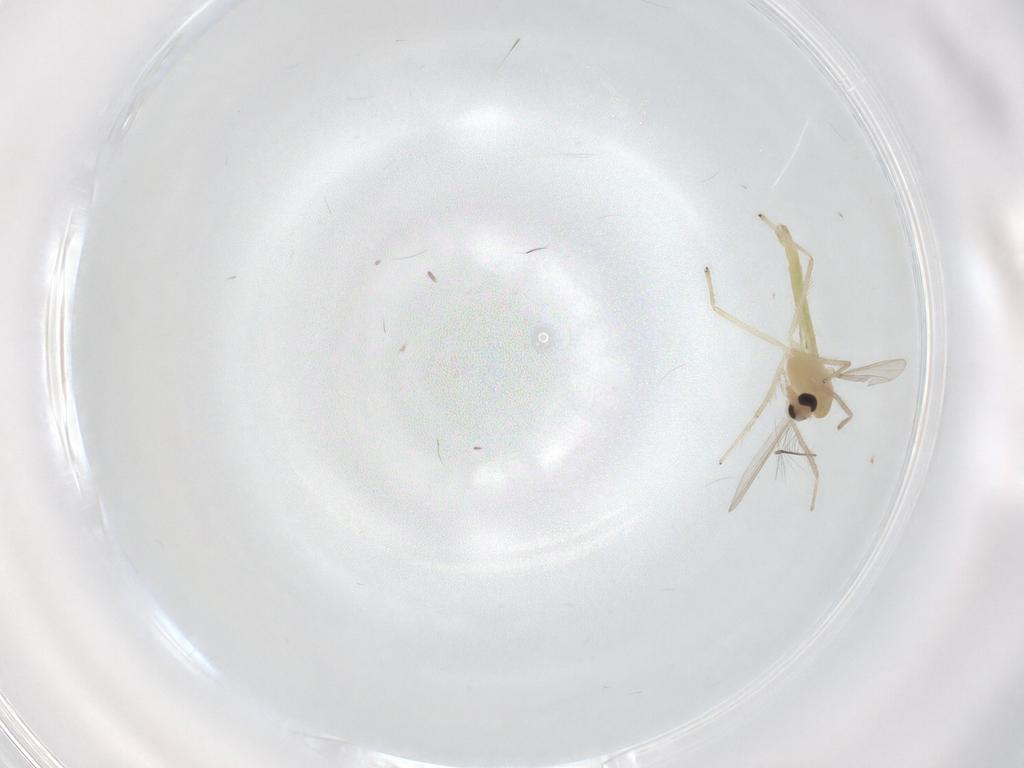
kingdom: Animalia
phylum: Arthropoda
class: Insecta
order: Diptera
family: Chironomidae
